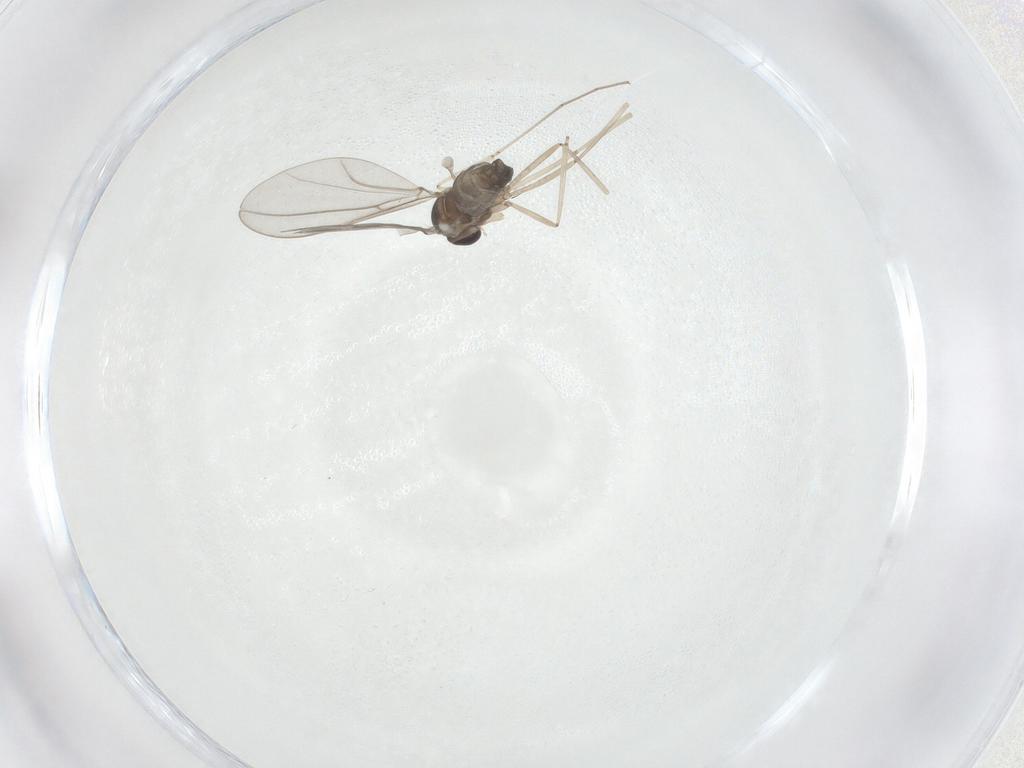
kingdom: Animalia
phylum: Arthropoda
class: Insecta
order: Diptera
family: Cecidomyiidae
